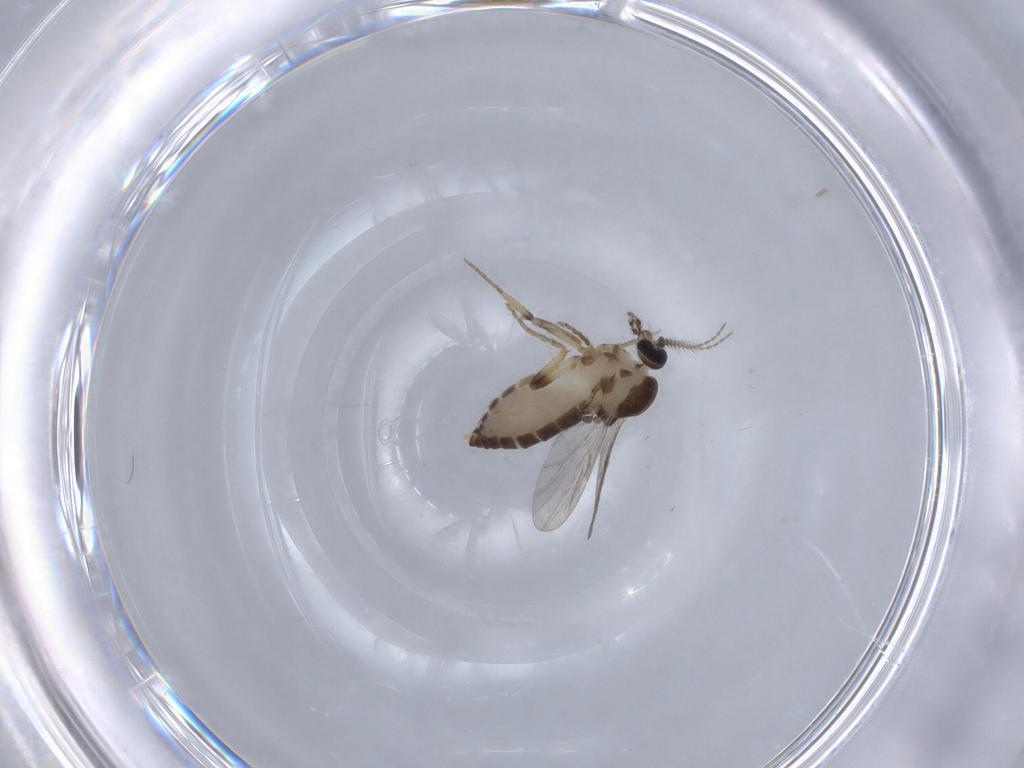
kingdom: Animalia
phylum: Arthropoda
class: Insecta
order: Diptera
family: Ceratopogonidae
